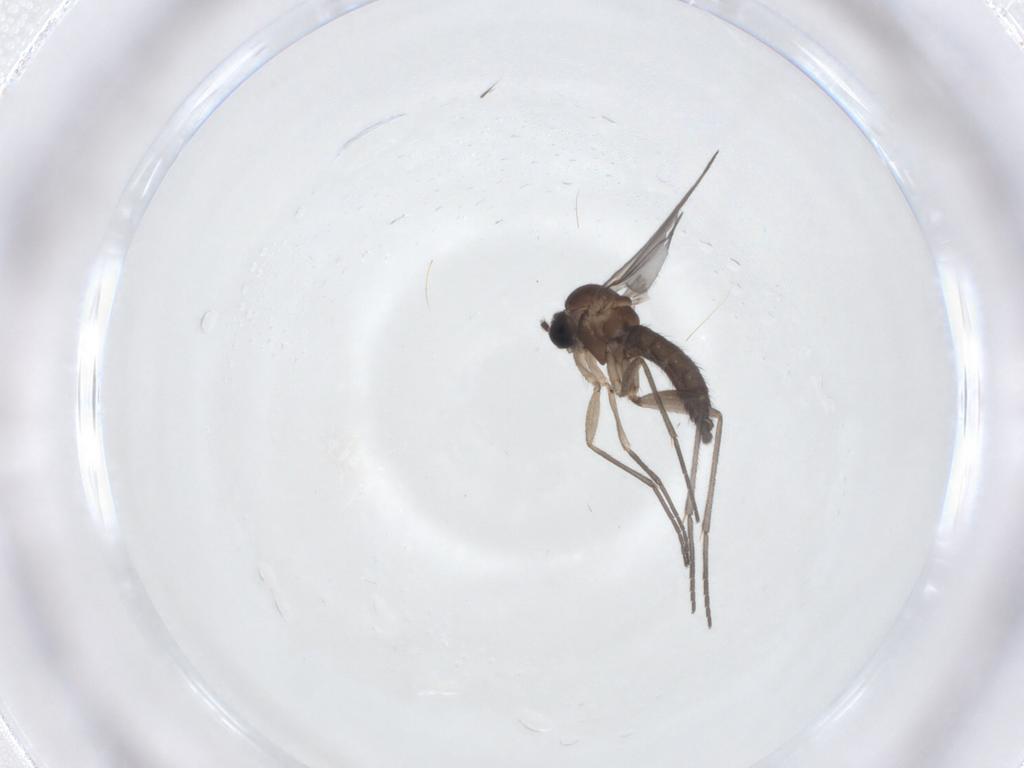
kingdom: Animalia
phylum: Arthropoda
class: Insecta
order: Diptera
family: Sciaridae
